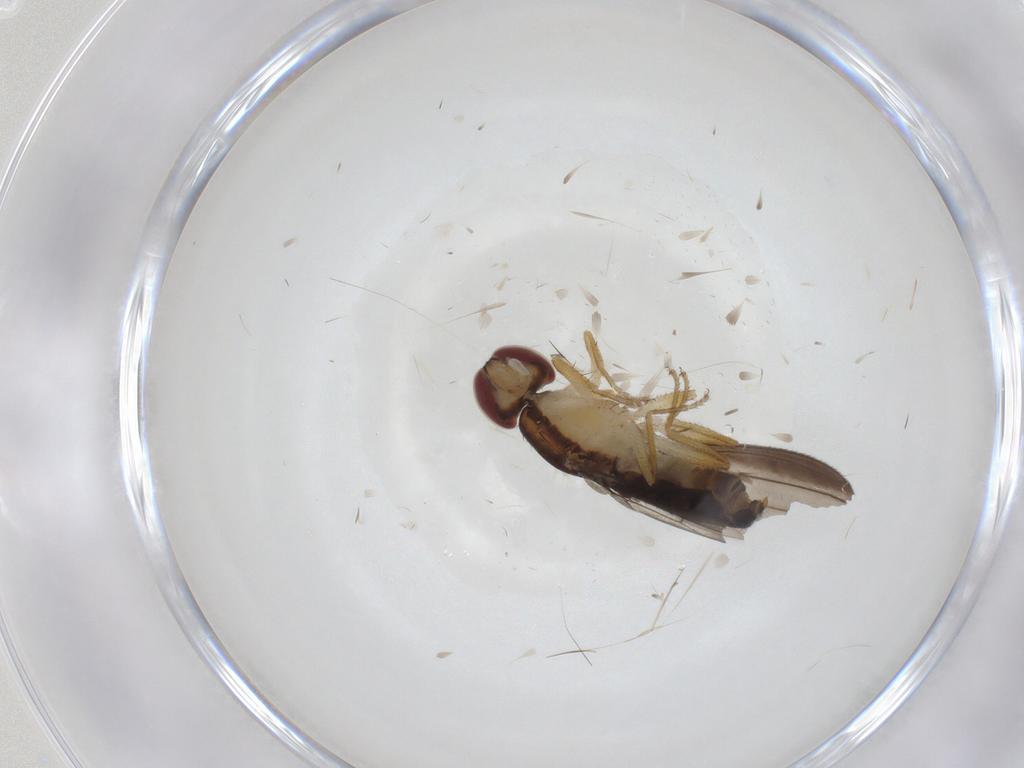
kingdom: Animalia
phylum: Arthropoda
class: Insecta
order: Diptera
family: Anthomyzidae
